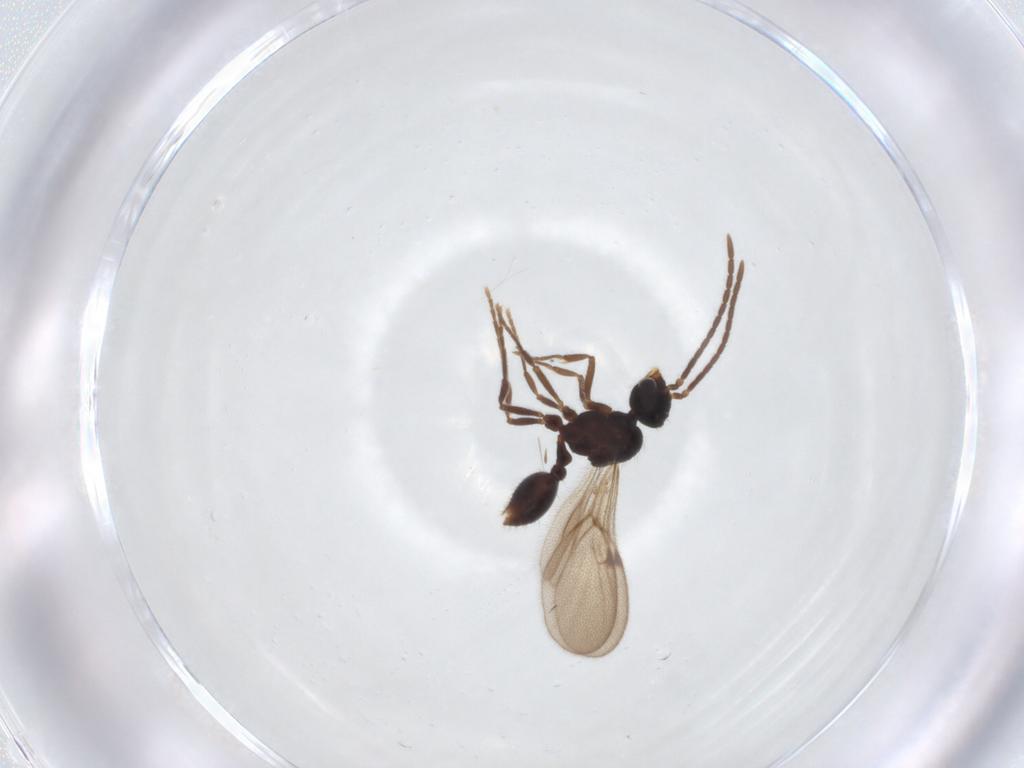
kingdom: Animalia
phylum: Arthropoda
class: Insecta
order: Hymenoptera
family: Formicidae
